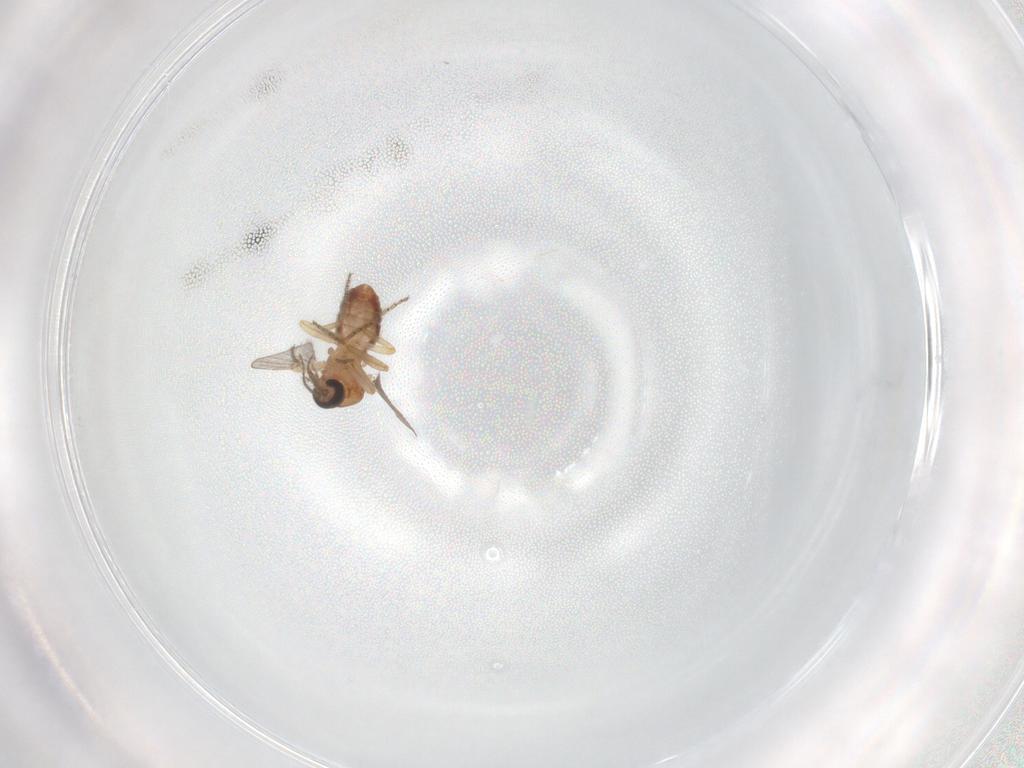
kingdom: Animalia
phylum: Arthropoda
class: Insecta
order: Diptera
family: Ceratopogonidae
